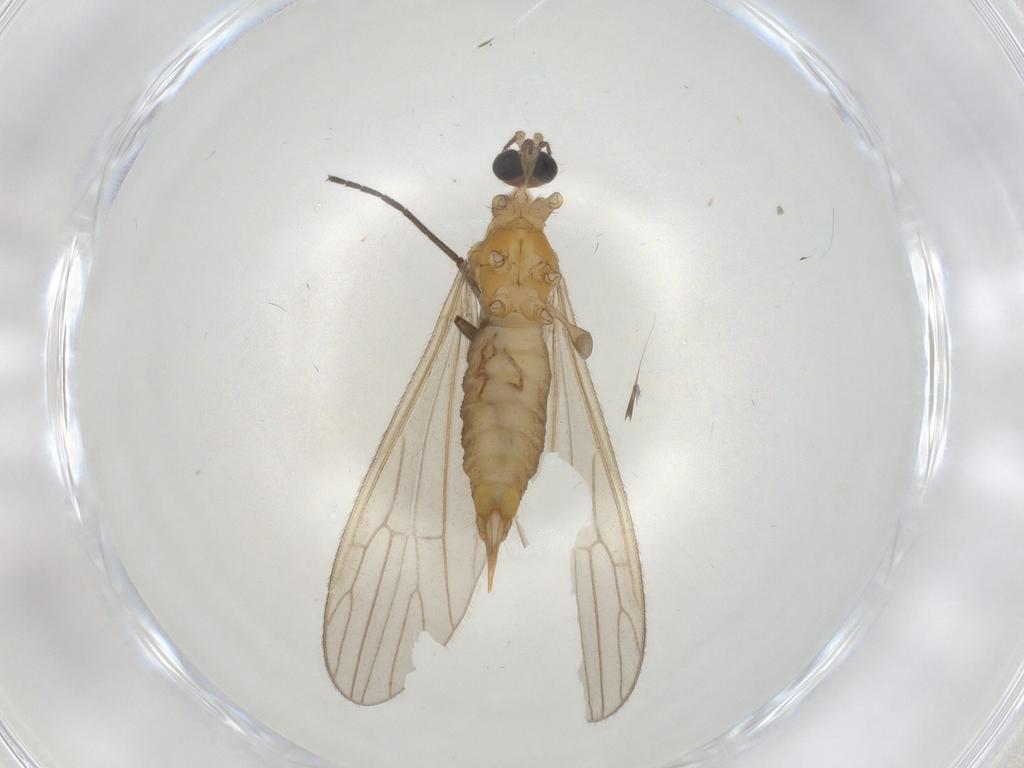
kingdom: Animalia
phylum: Arthropoda
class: Insecta
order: Diptera
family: Limoniidae
